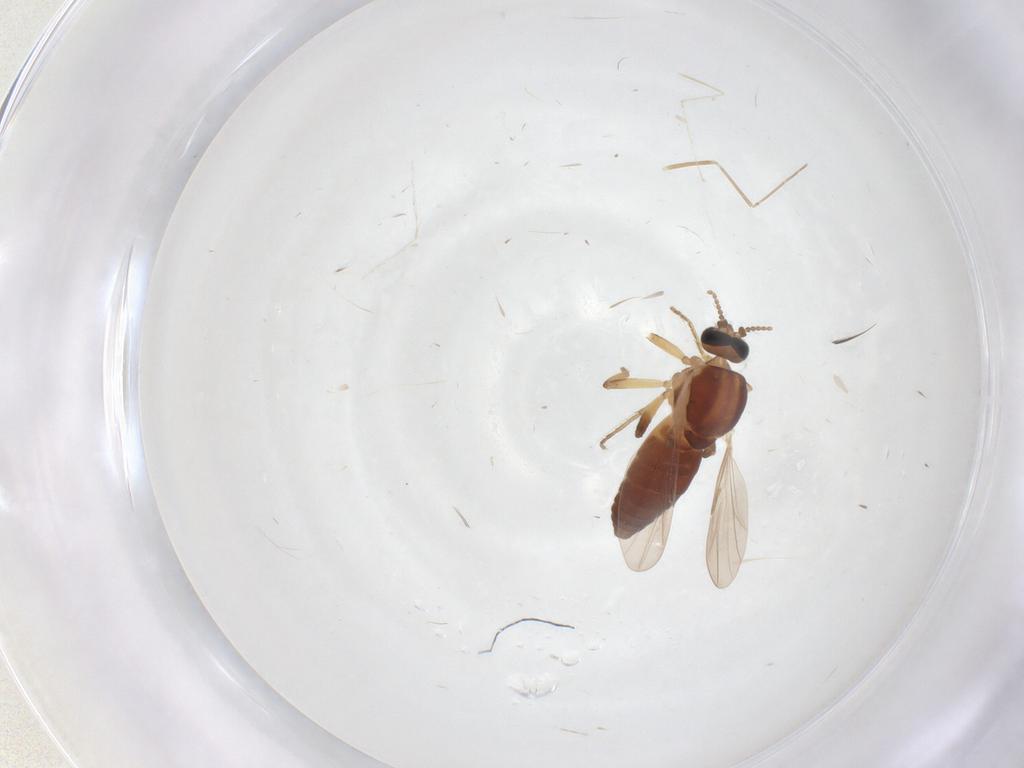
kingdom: Animalia
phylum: Arthropoda
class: Insecta
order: Diptera
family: Ceratopogonidae
